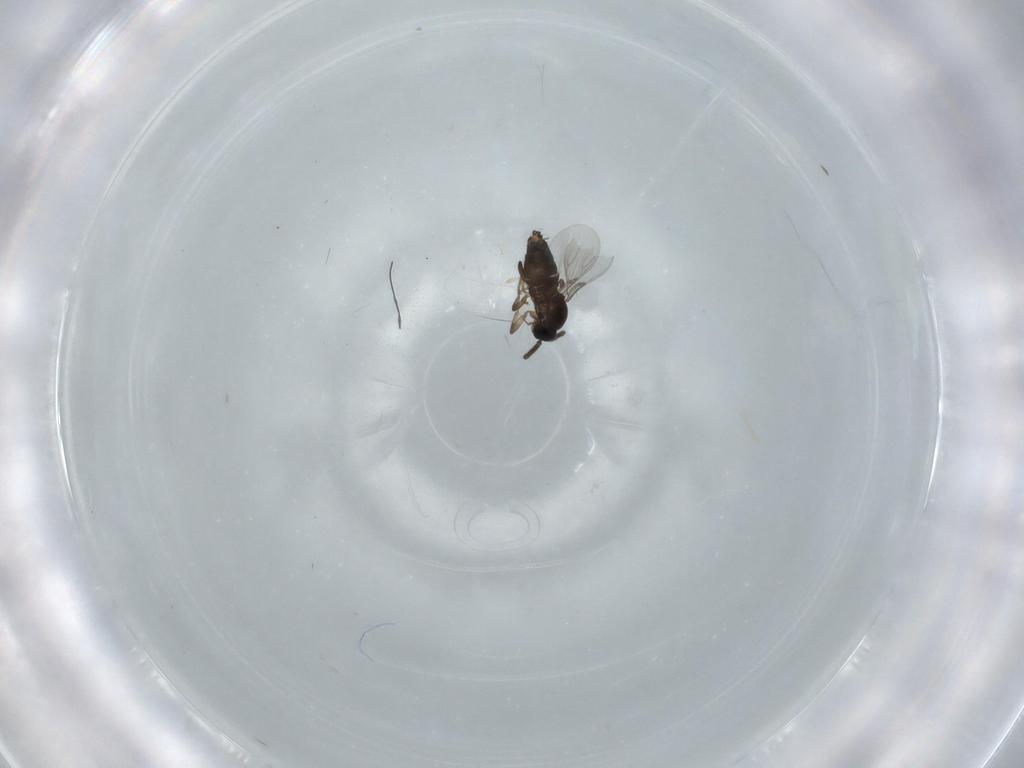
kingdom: Animalia
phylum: Arthropoda
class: Insecta
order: Diptera
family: Scatopsidae
